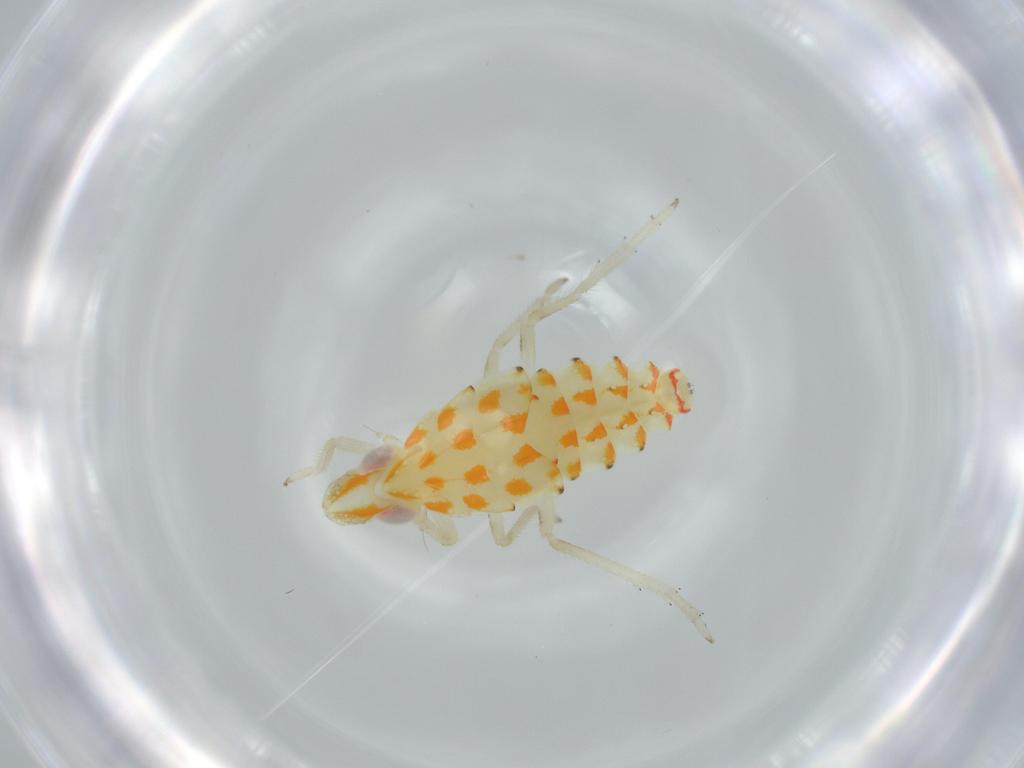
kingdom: Animalia
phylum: Arthropoda
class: Insecta
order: Hemiptera
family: Tropiduchidae
